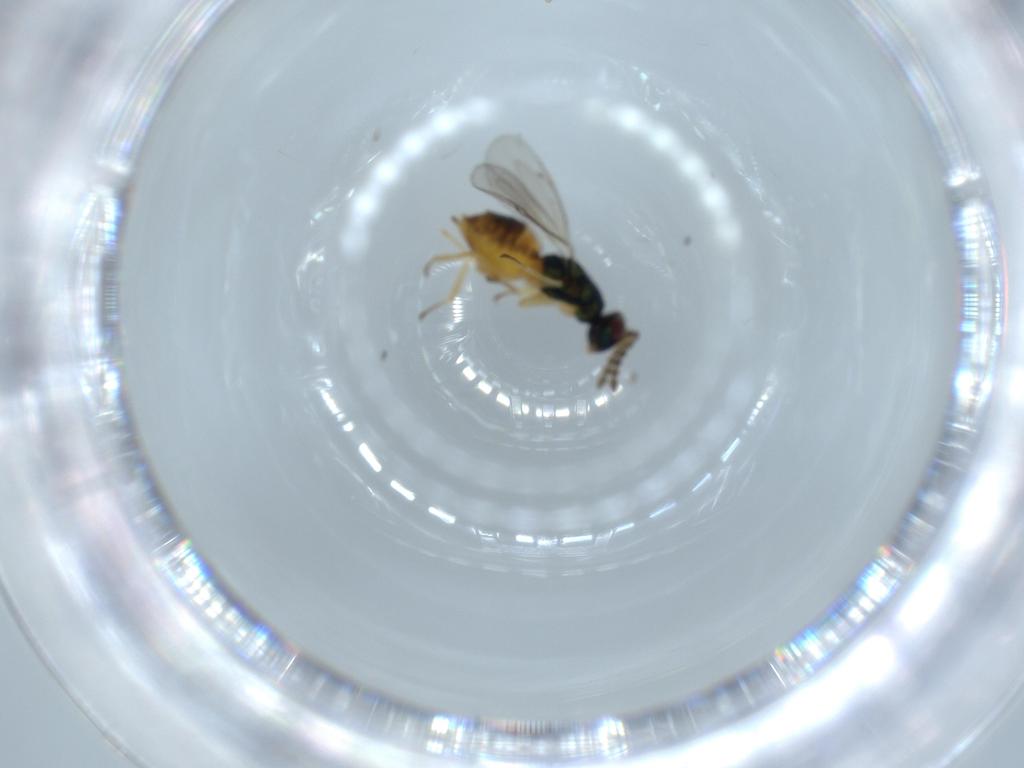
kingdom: Animalia
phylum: Arthropoda
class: Insecta
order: Hymenoptera
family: Eulophidae
